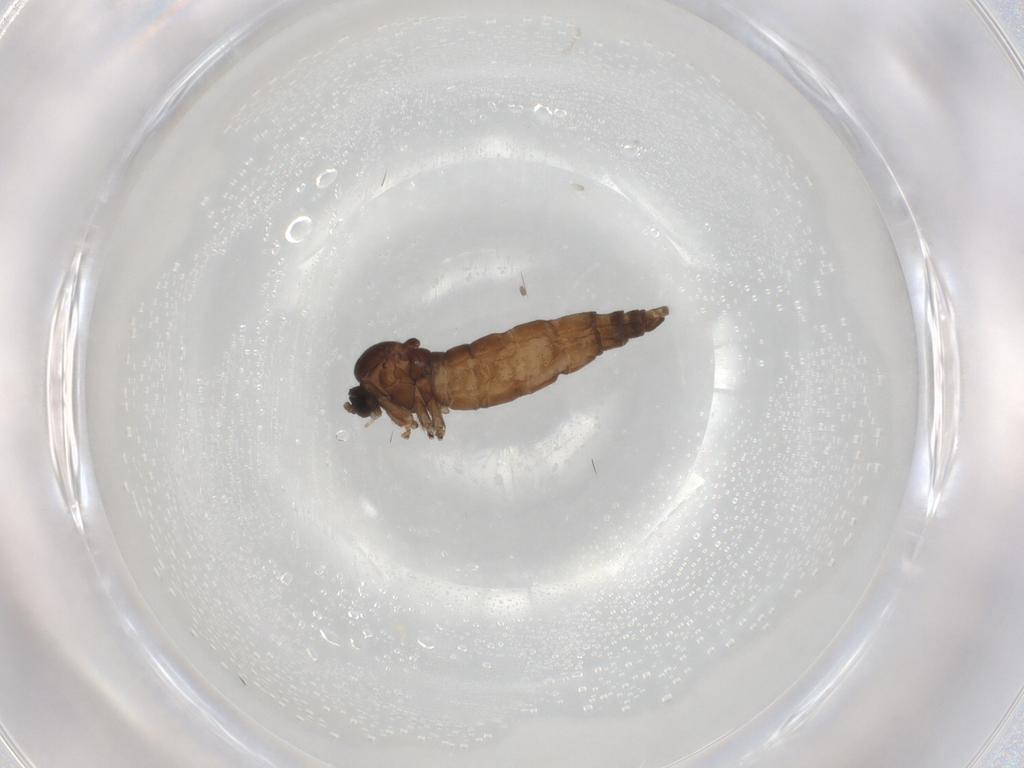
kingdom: Animalia
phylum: Arthropoda
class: Insecta
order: Diptera
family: Sciaridae
